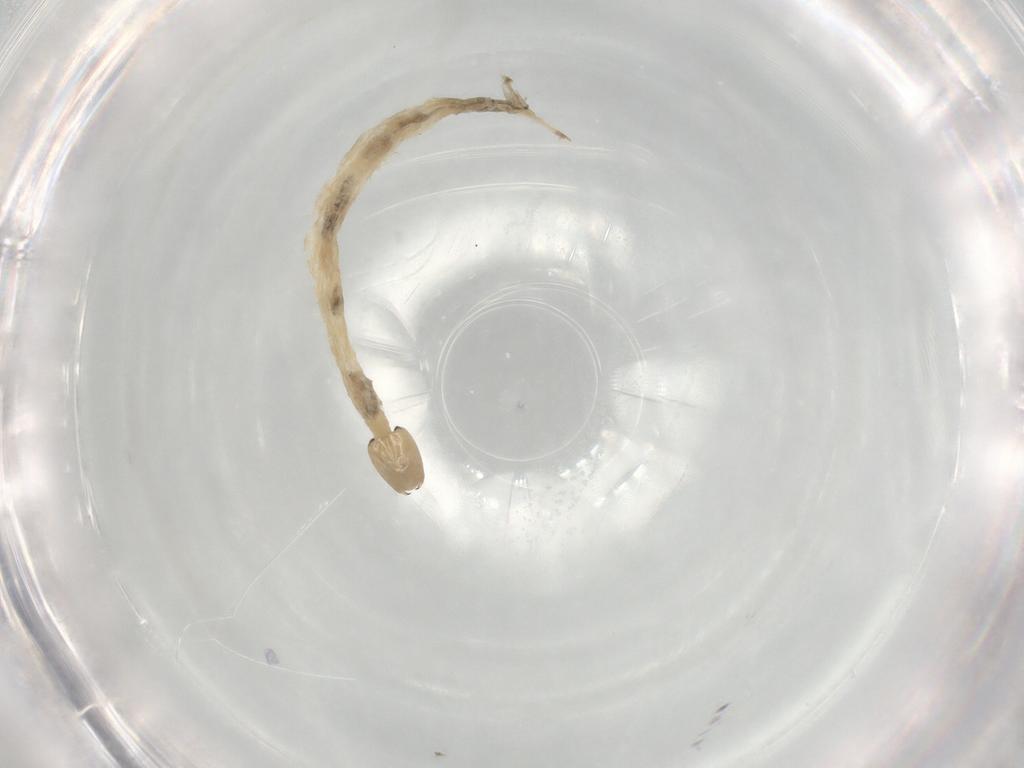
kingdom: Animalia
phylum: Arthropoda
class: Insecta
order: Diptera
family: Chironomidae
